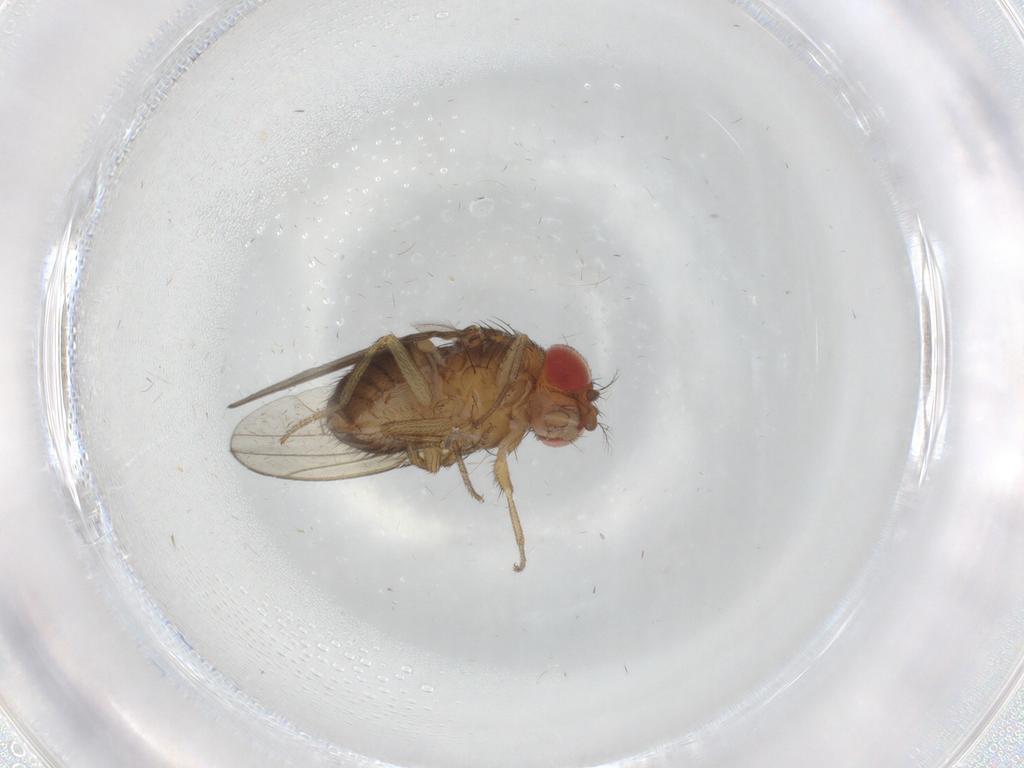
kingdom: Animalia
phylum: Arthropoda
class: Insecta
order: Diptera
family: Drosophilidae
